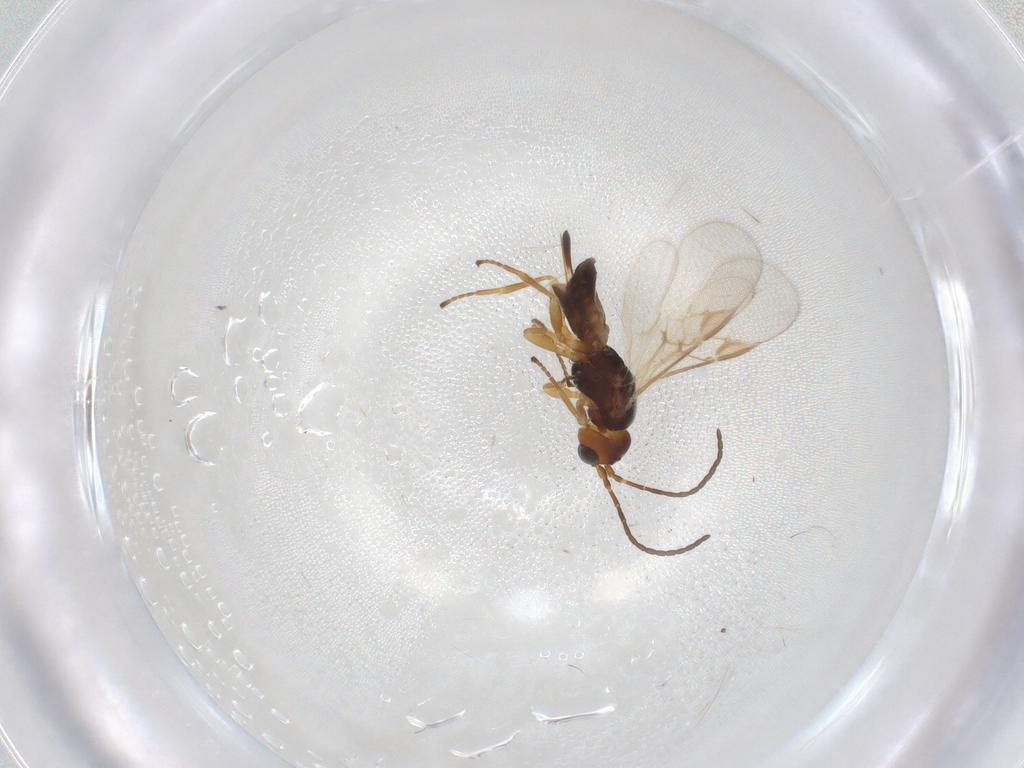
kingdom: Animalia
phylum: Arthropoda
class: Insecta
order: Hymenoptera
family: Braconidae
